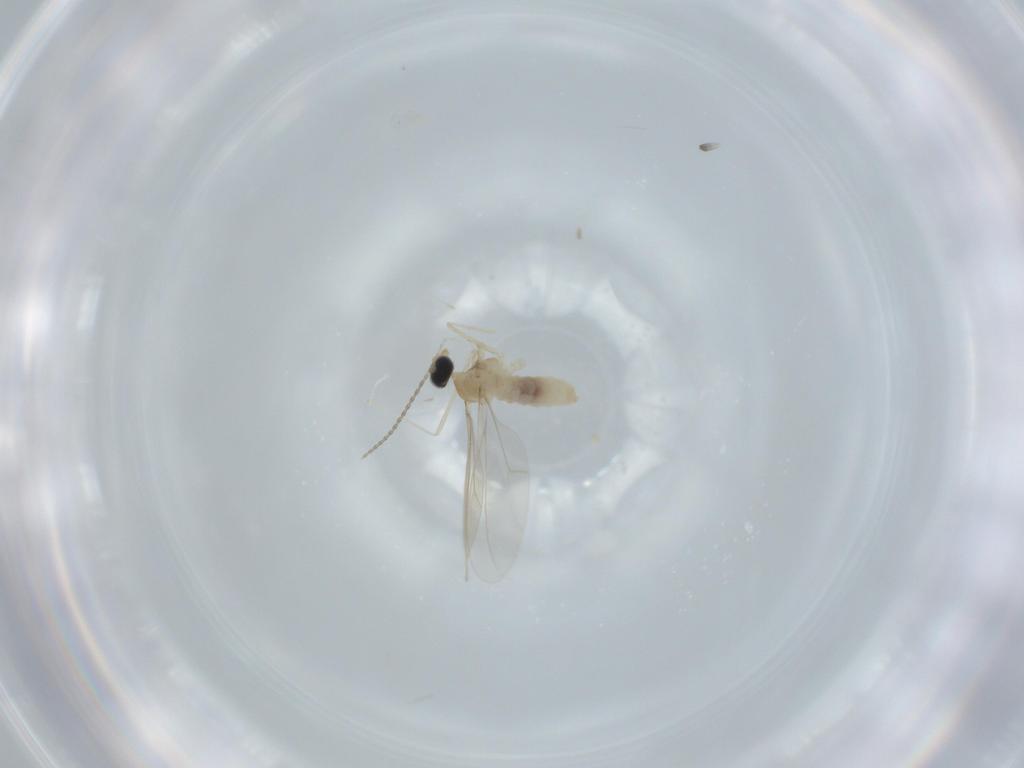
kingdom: Animalia
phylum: Arthropoda
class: Insecta
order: Diptera
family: Cecidomyiidae
